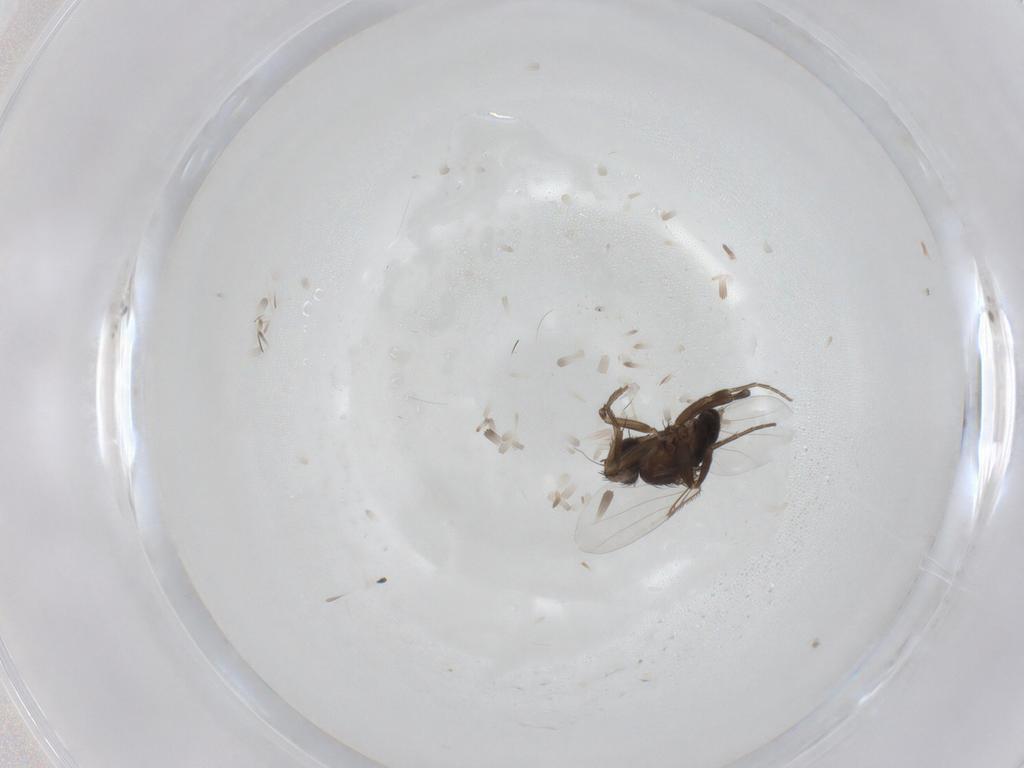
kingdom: Animalia
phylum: Arthropoda
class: Insecta
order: Diptera
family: Phoridae
